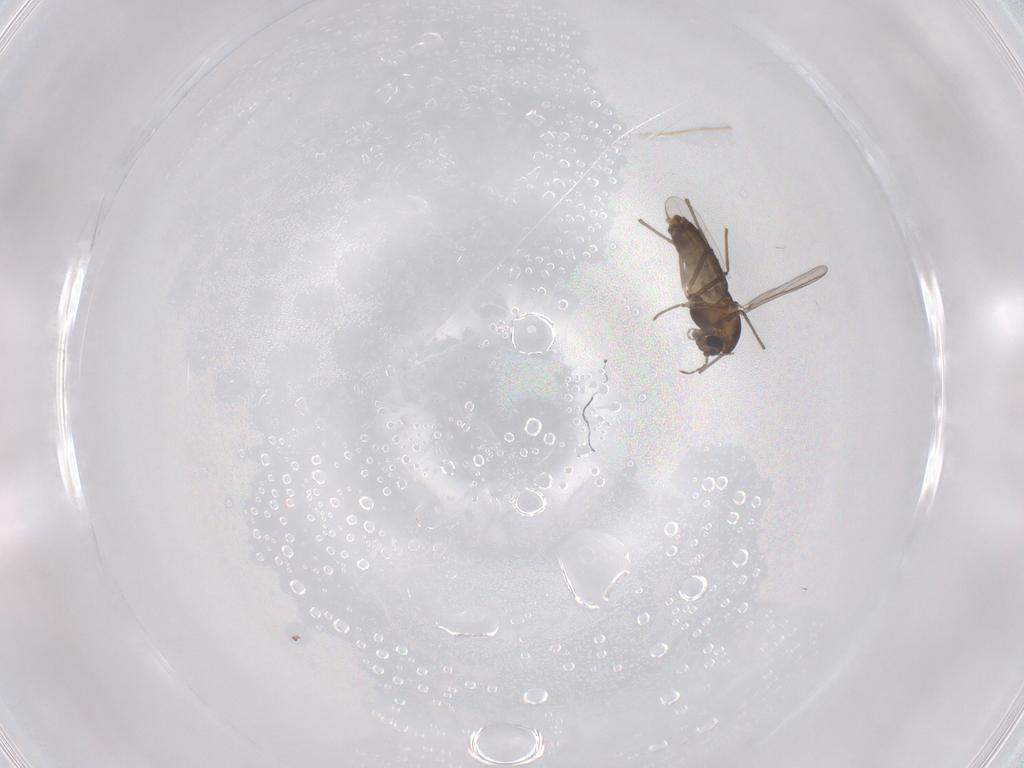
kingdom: Animalia
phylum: Arthropoda
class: Insecta
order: Diptera
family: Chironomidae
